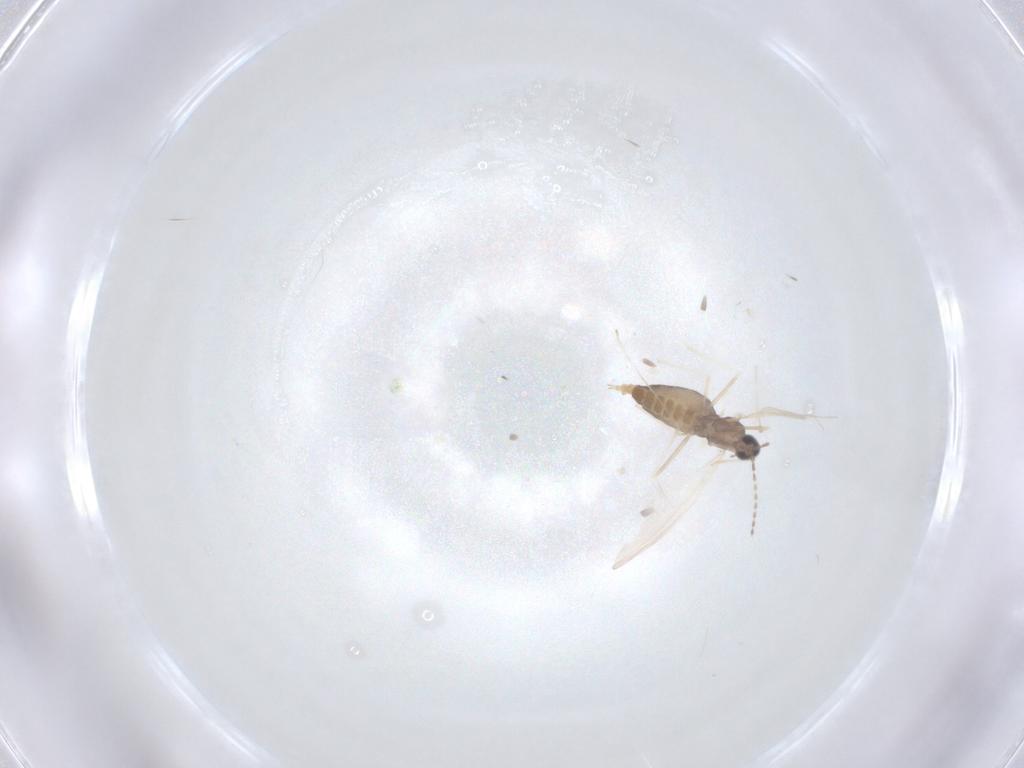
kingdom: Animalia
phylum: Arthropoda
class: Insecta
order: Diptera
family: Cecidomyiidae
